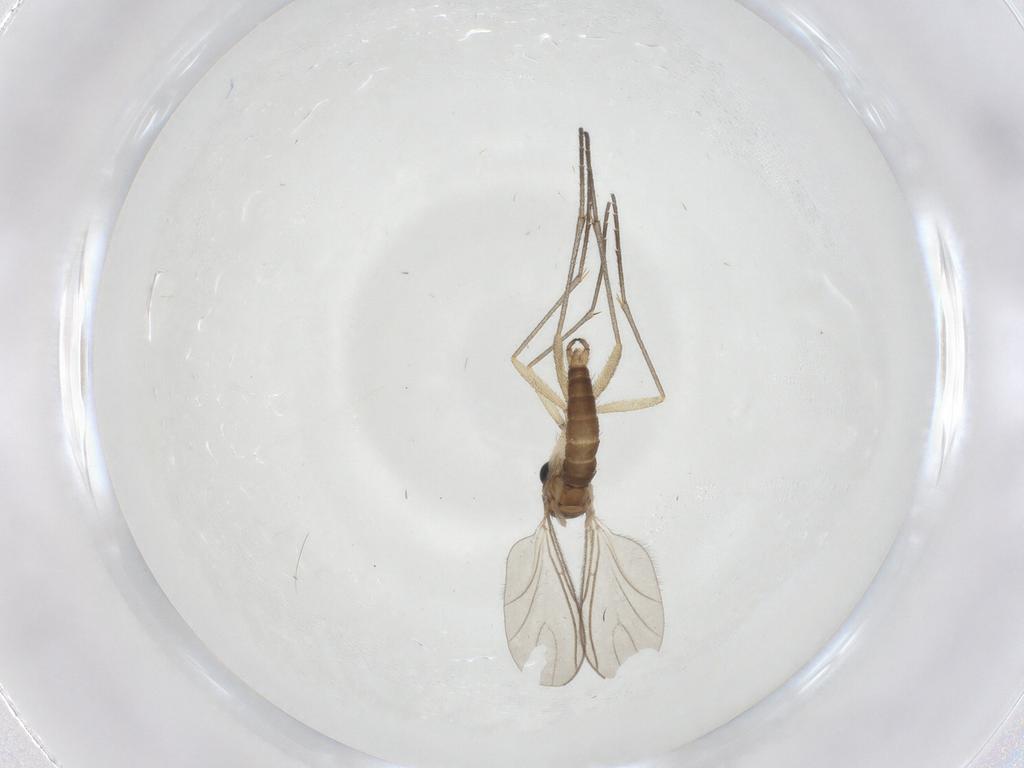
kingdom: Animalia
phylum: Arthropoda
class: Insecta
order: Diptera
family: Sciaridae
